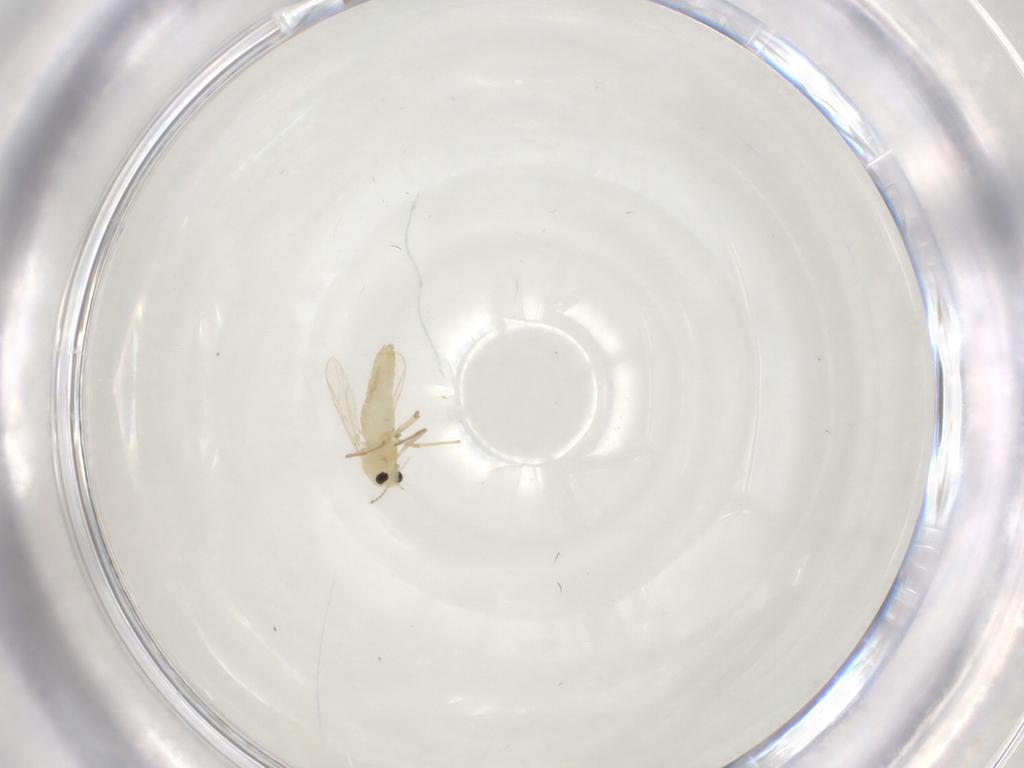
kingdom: Animalia
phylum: Arthropoda
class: Insecta
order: Diptera
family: Chironomidae
